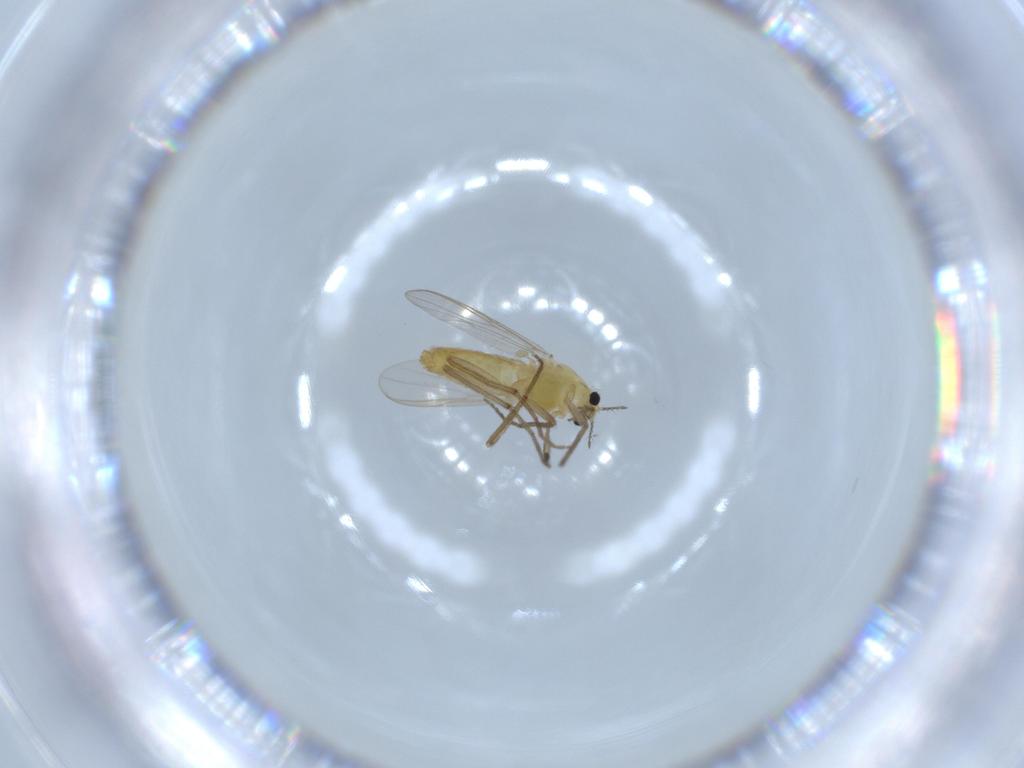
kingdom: Animalia
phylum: Arthropoda
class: Insecta
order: Diptera
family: Chironomidae
